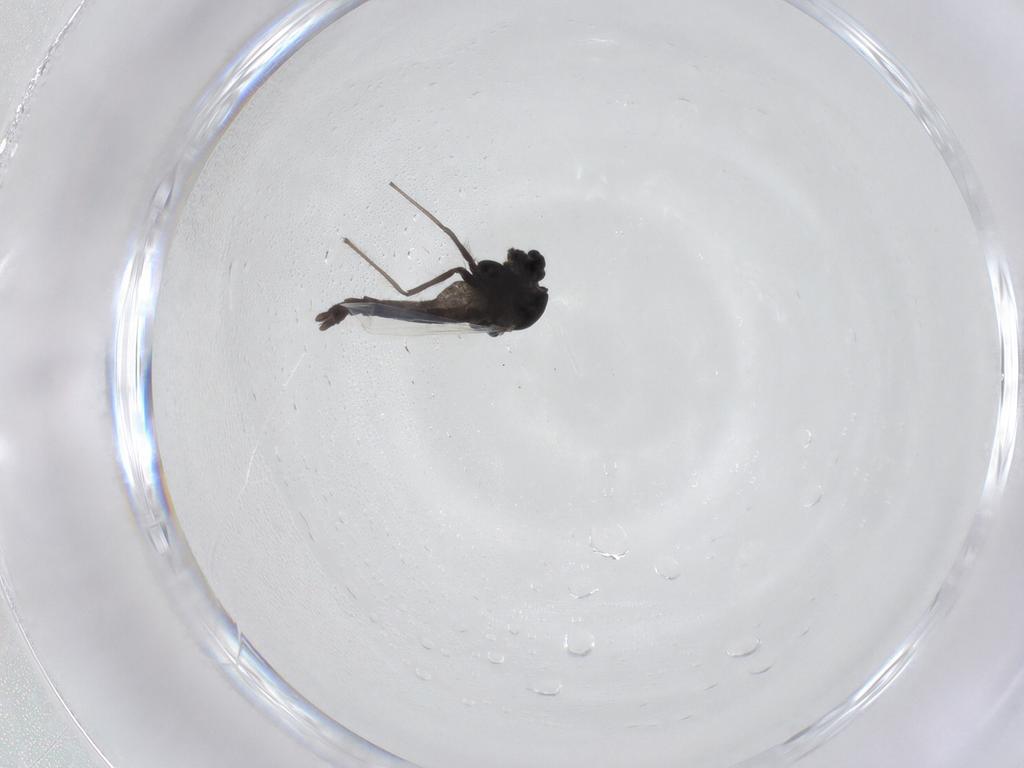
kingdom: Animalia
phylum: Arthropoda
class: Insecta
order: Diptera
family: Chironomidae
